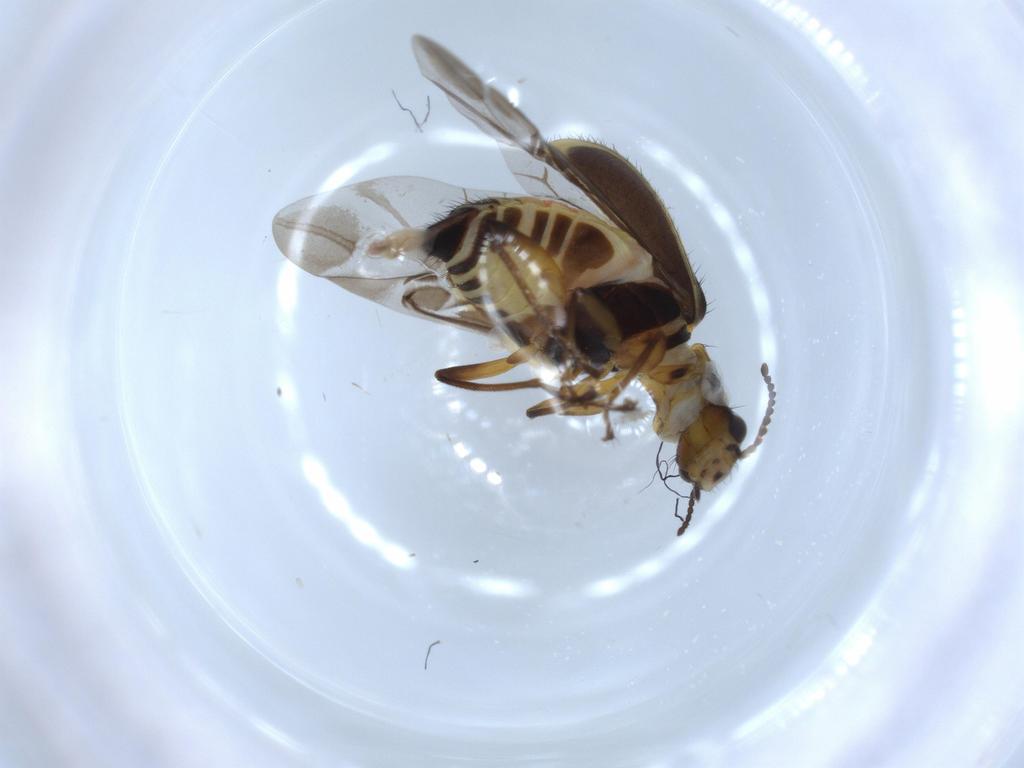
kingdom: Animalia
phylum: Arthropoda
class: Insecta
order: Coleoptera
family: Melyridae
